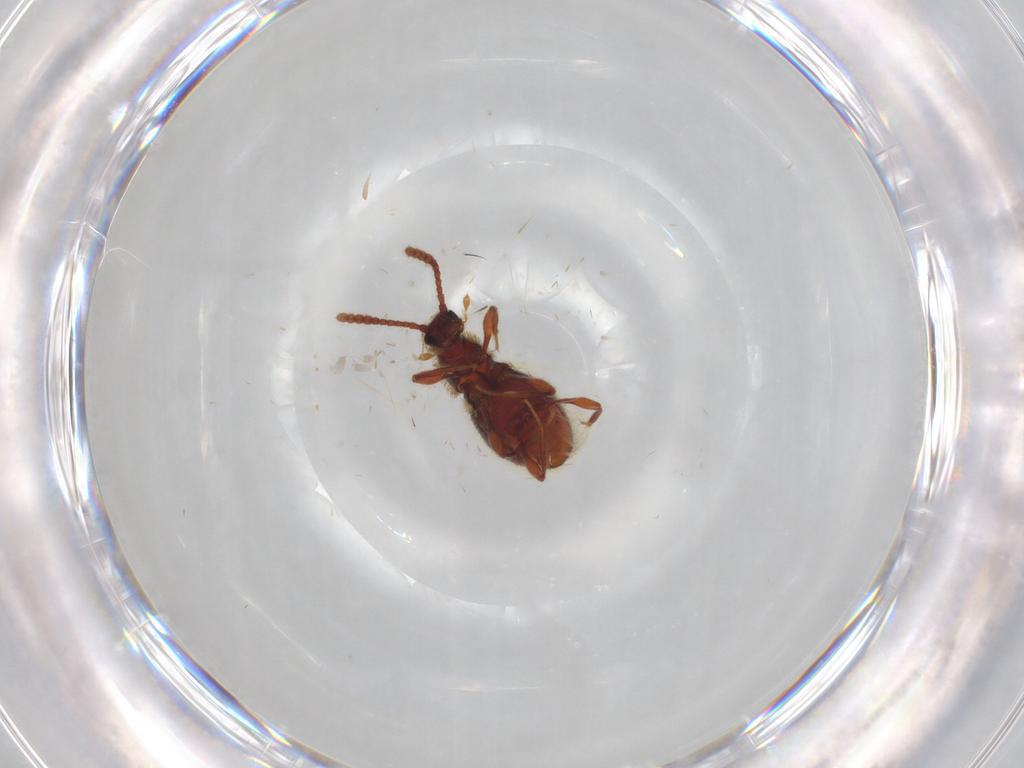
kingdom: Animalia
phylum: Arthropoda
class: Insecta
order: Coleoptera
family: Staphylinidae
